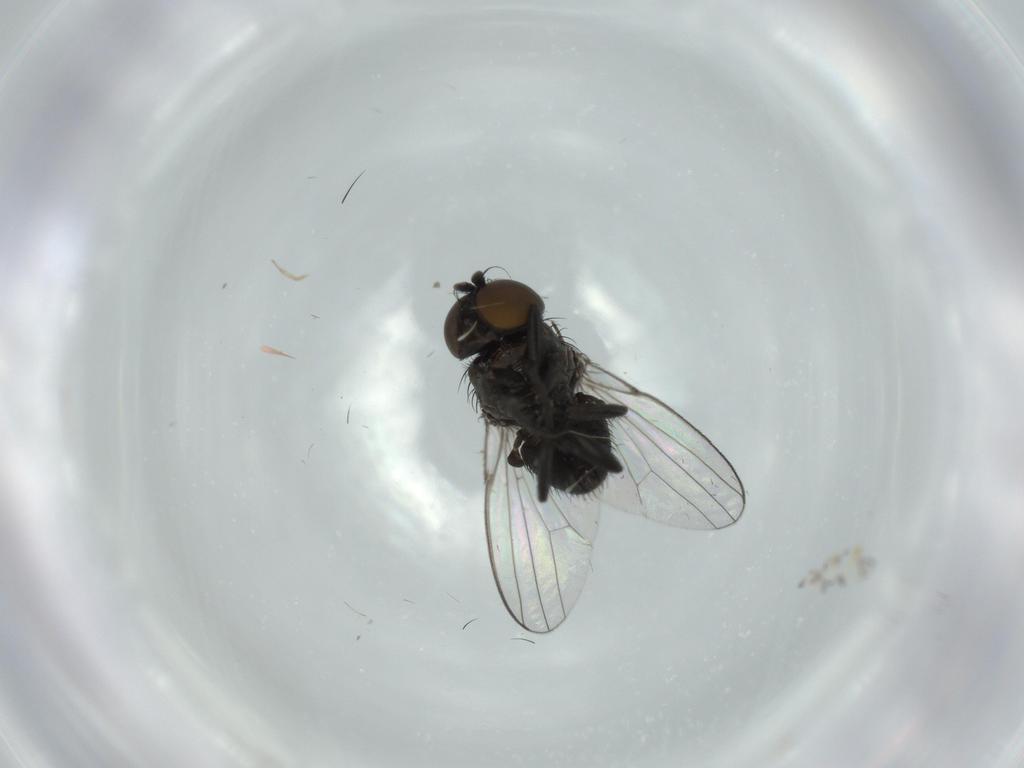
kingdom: Animalia
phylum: Arthropoda
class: Insecta
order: Diptera
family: Milichiidae
